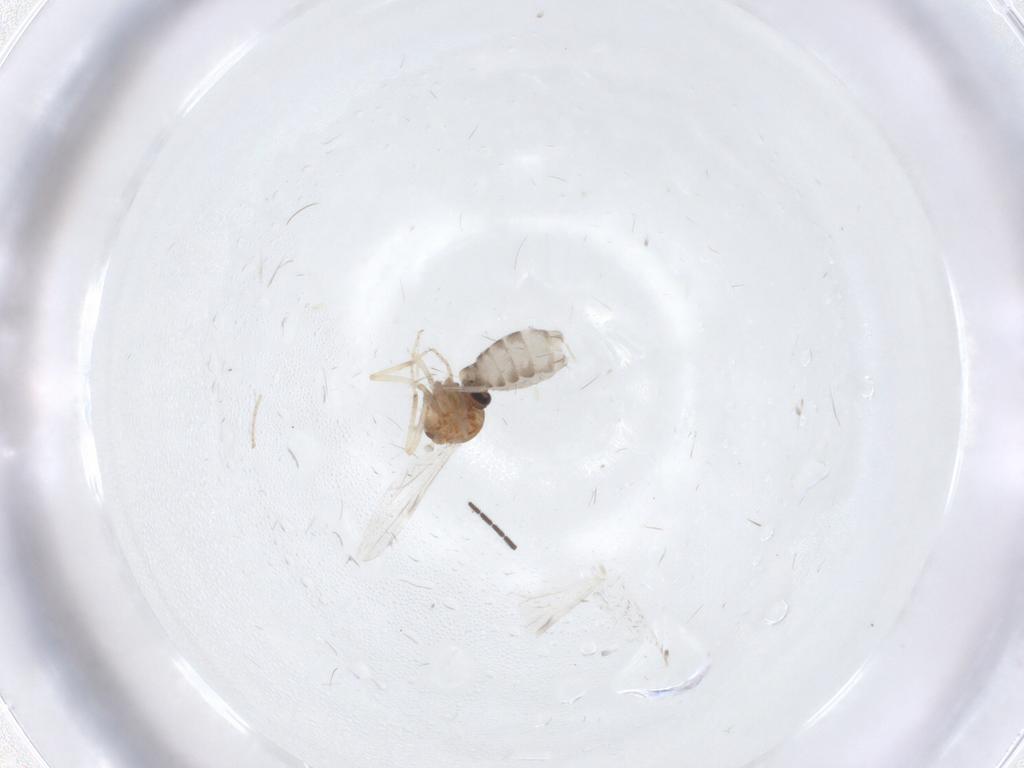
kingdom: Animalia
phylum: Arthropoda
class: Insecta
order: Diptera
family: Ceratopogonidae
